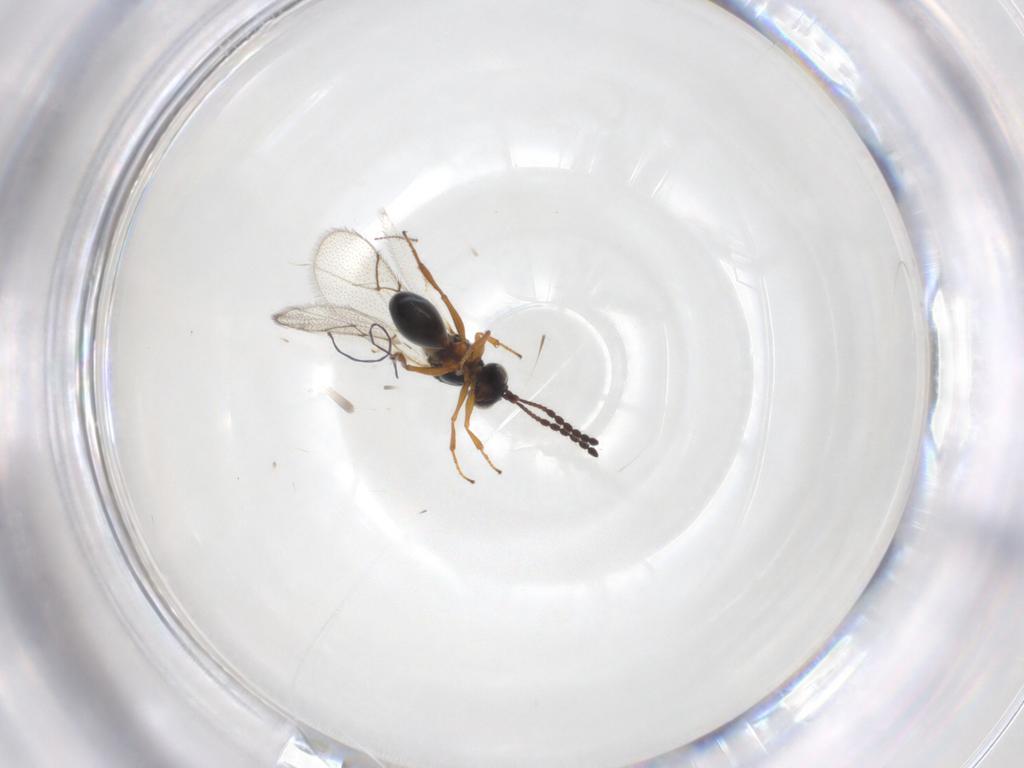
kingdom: Animalia
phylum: Arthropoda
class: Insecta
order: Hymenoptera
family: Figitidae
